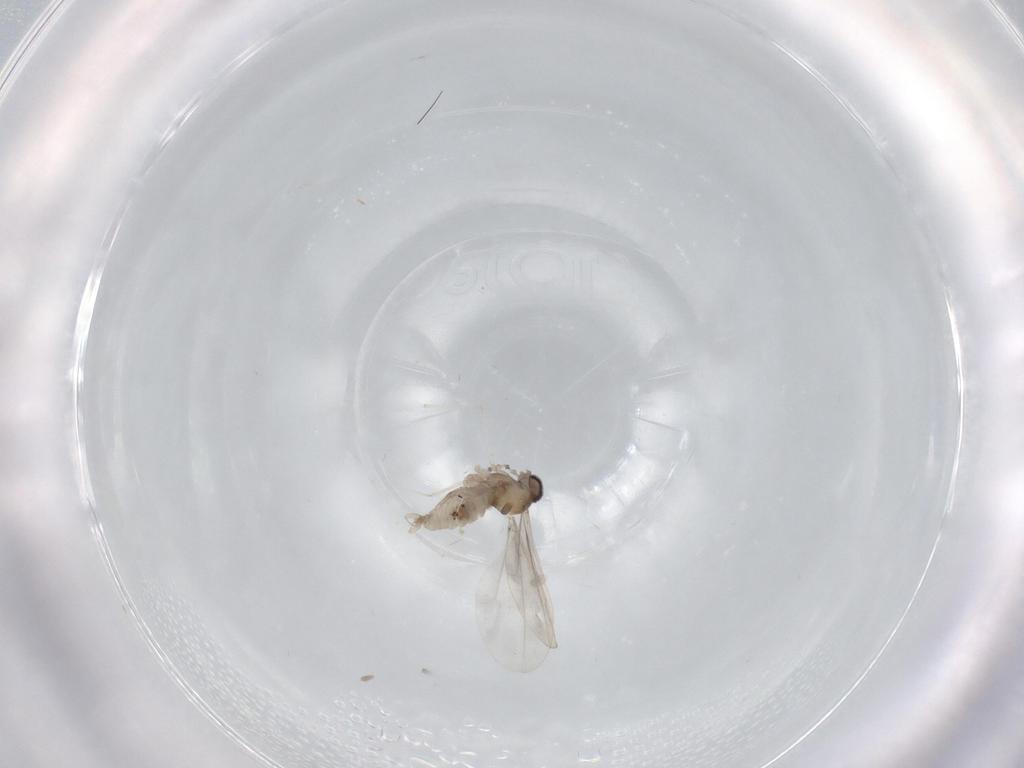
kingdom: Animalia
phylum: Arthropoda
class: Insecta
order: Diptera
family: Cecidomyiidae
